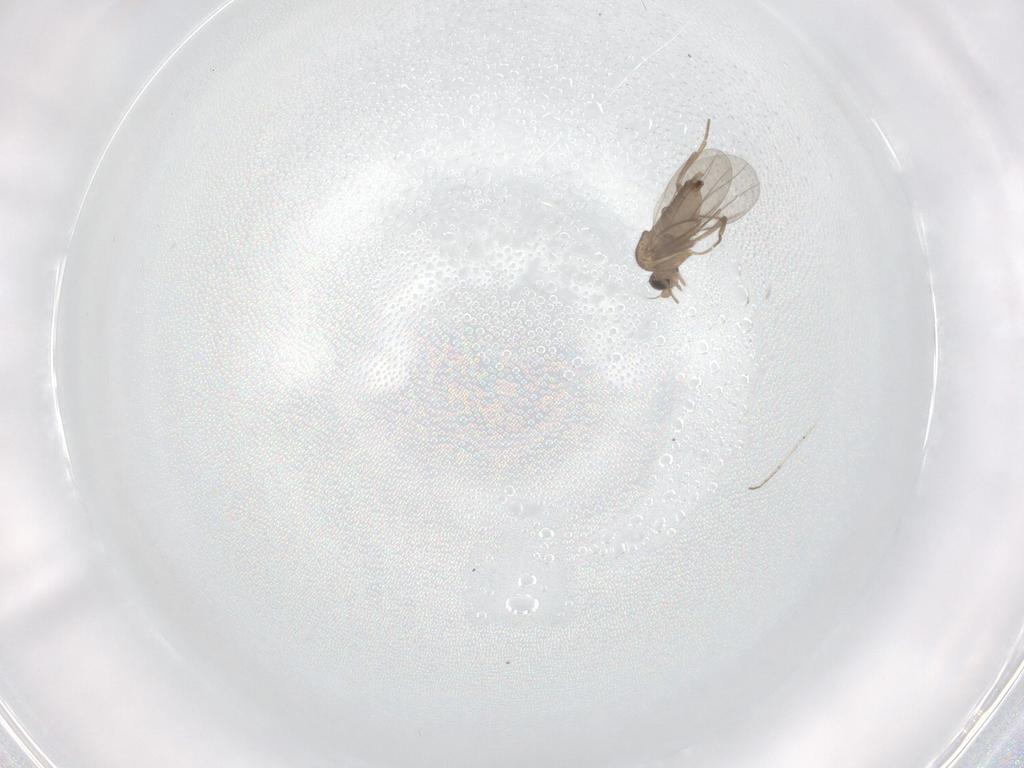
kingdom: Animalia
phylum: Arthropoda
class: Insecta
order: Diptera
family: Cecidomyiidae
